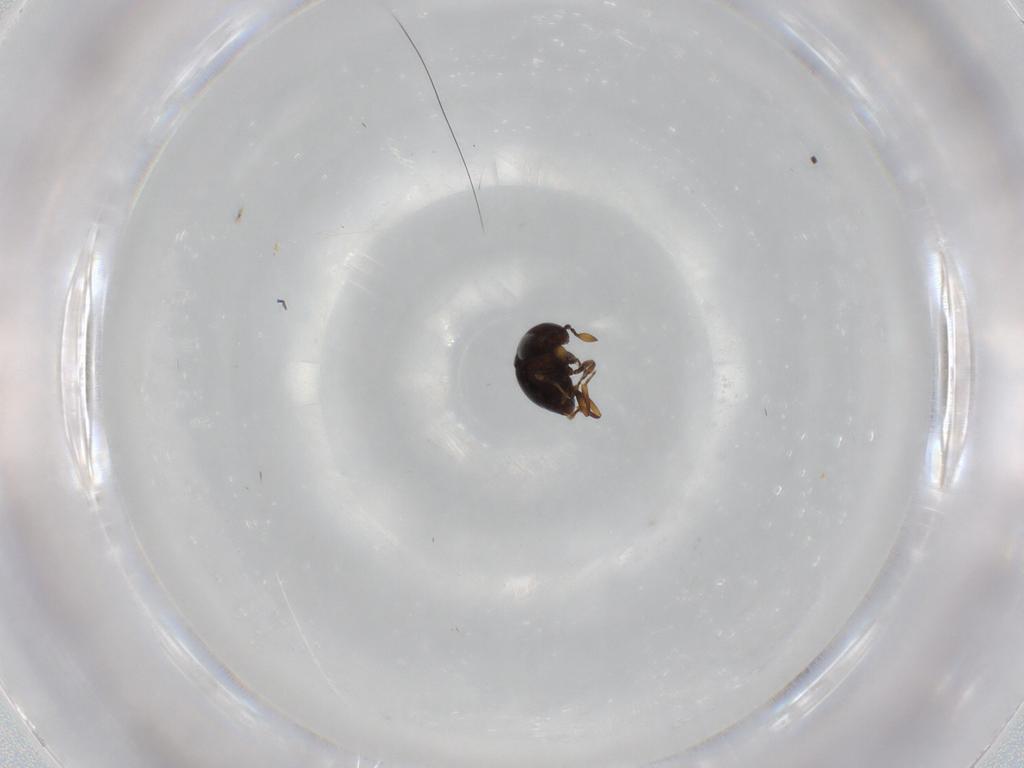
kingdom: Animalia
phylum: Arthropoda
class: Insecta
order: Hymenoptera
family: Scelionidae
